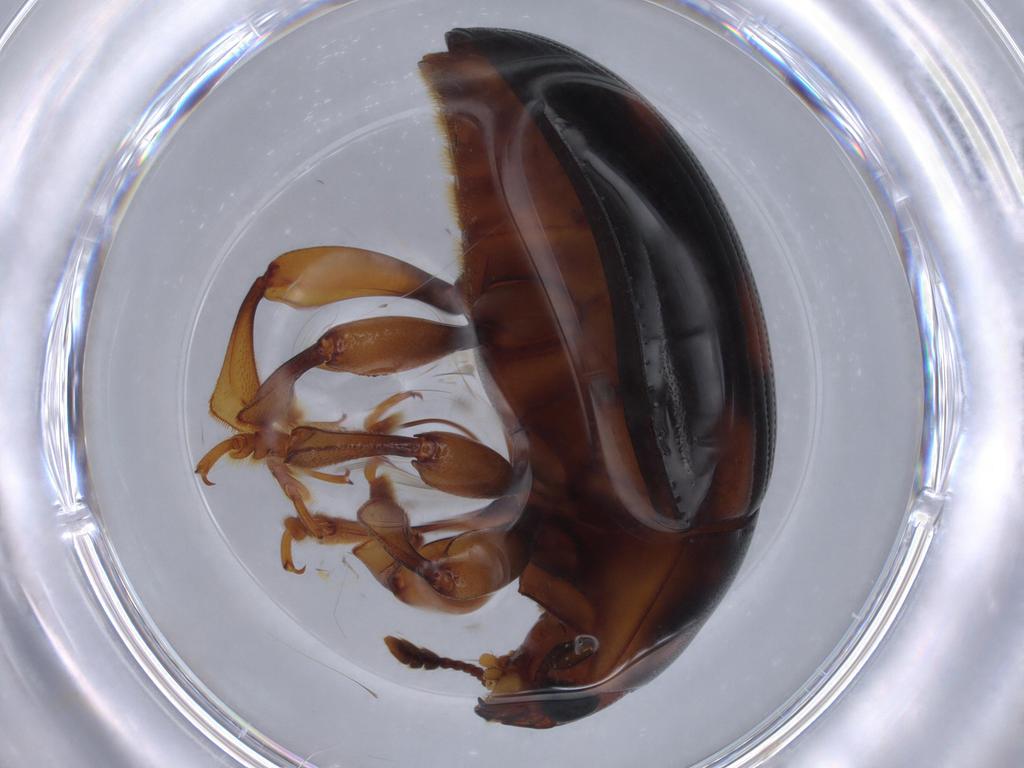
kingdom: Animalia
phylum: Arthropoda
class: Insecta
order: Coleoptera
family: Erotylidae
